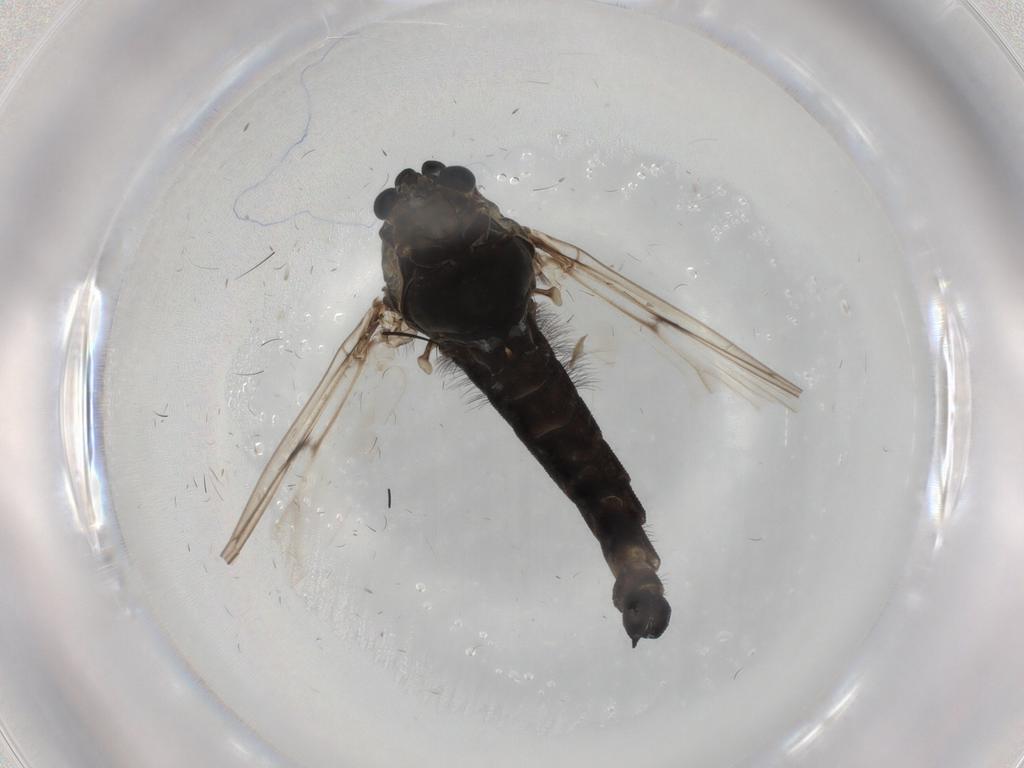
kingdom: Animalia
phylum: Arthropoda
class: Insecta
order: Diptera
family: Chironomidae
